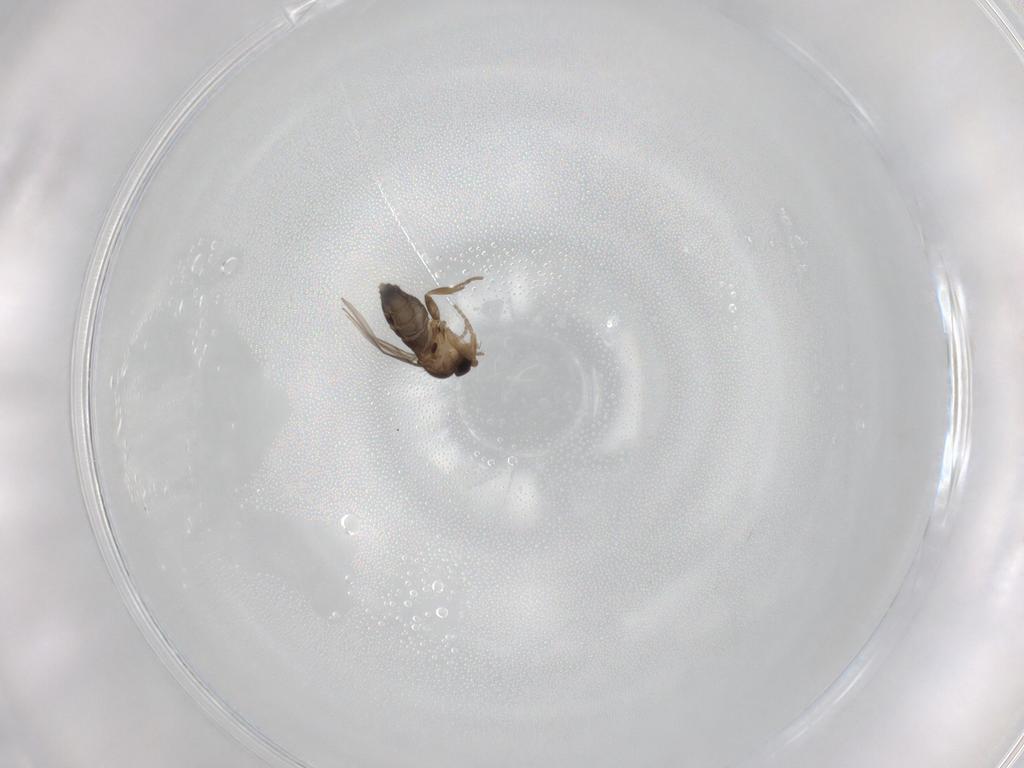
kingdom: Animalia
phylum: Arthropoda
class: Insecta
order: Diptera
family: Phoridae
